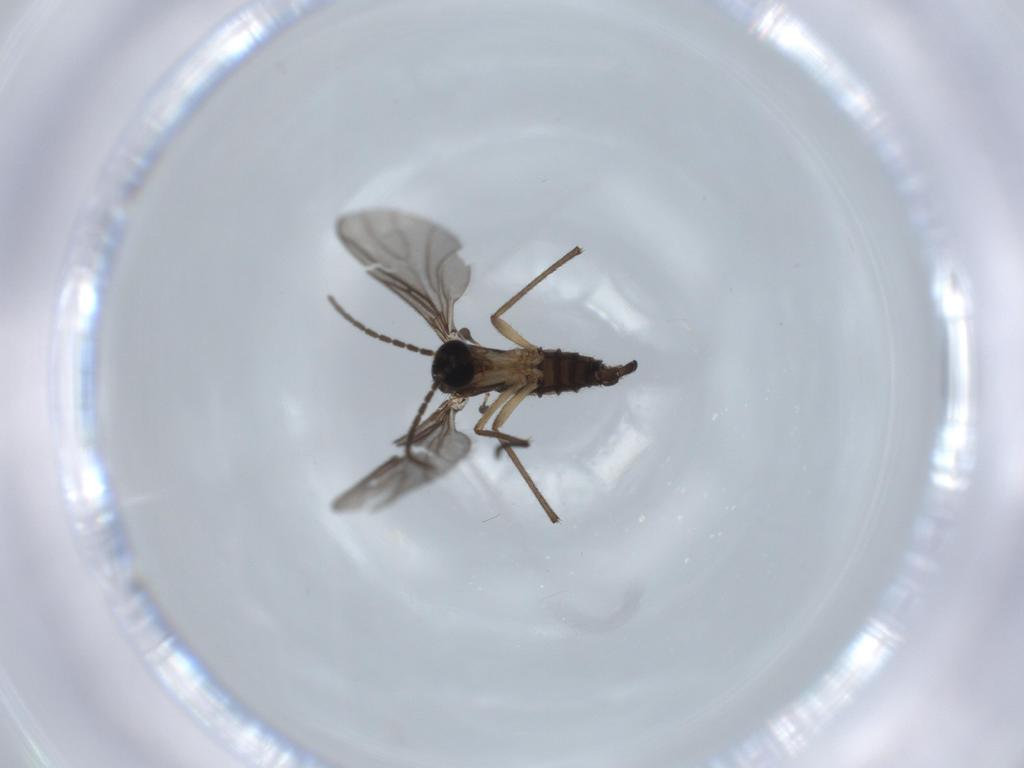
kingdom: Animalia
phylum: Arthropoda
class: Insecta
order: Diptera
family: Sciaridae
